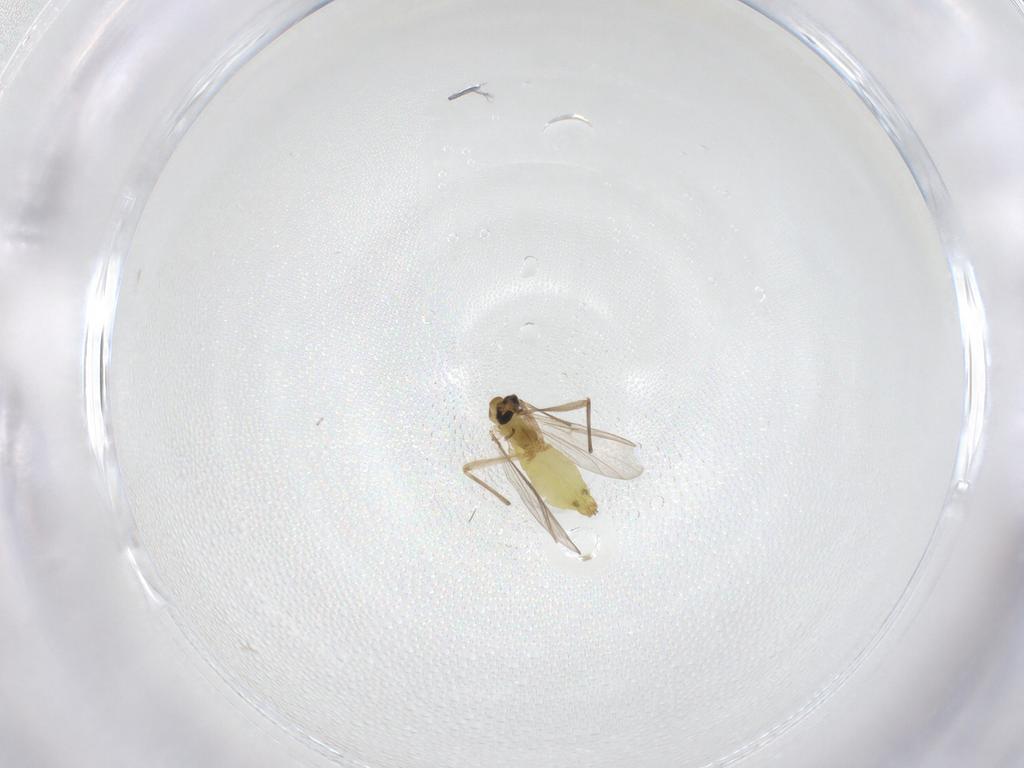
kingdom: Animalia
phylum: Arthropoda
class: Insecta
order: Diptera
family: Chironomidae
